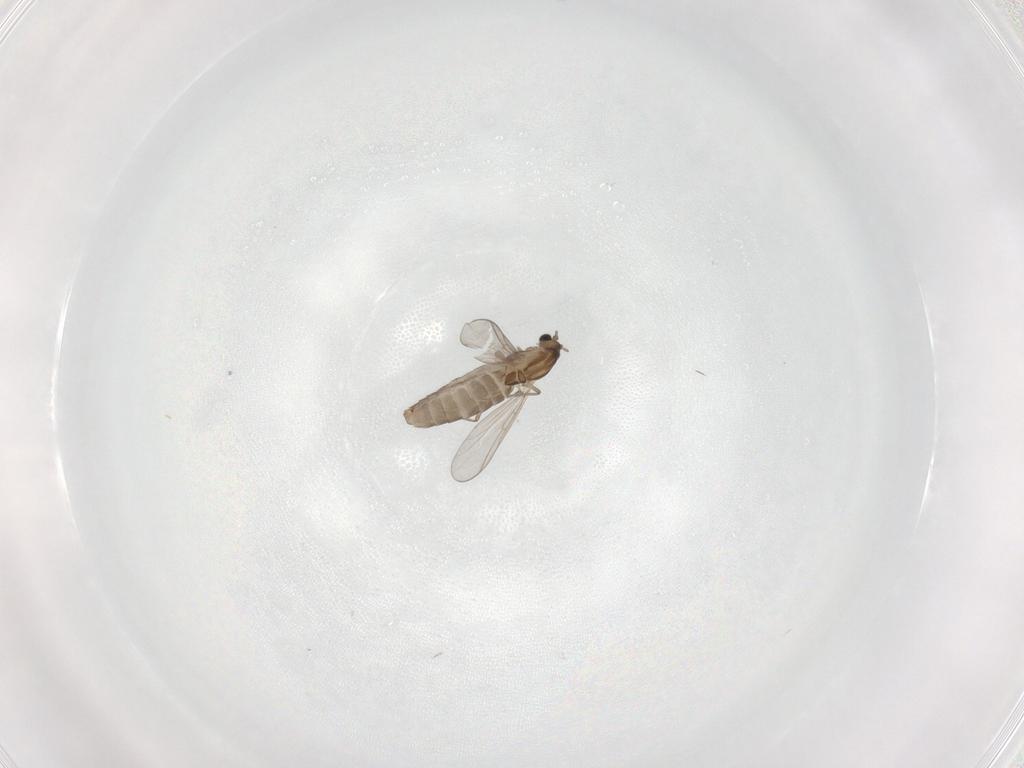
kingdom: Animalia
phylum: Arthropoda
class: Insecta
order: Diptera
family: Chironomidae
